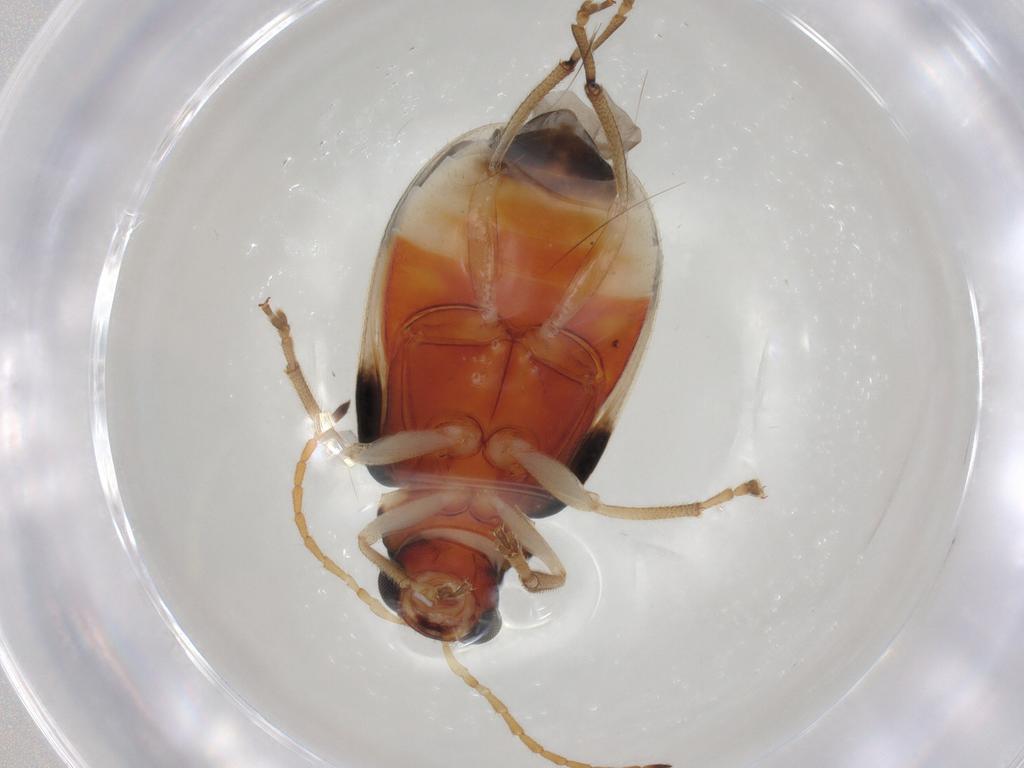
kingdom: Animalia
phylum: Arthropoda
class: Insecta
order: Coleoptera
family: Chrysomelidae
